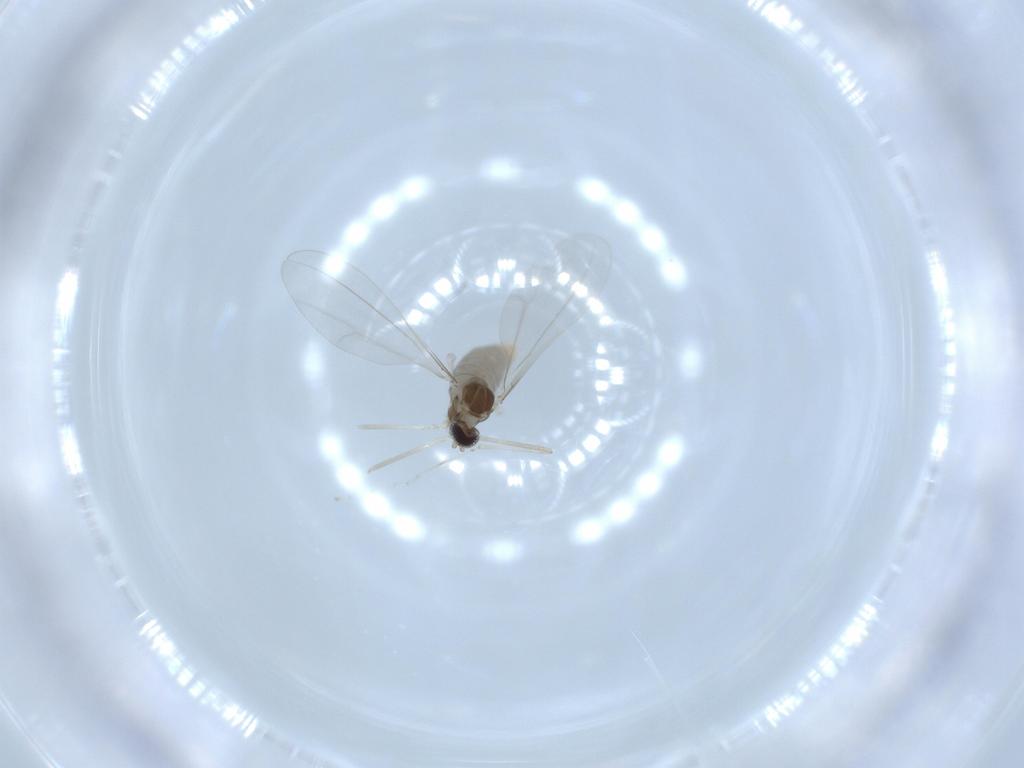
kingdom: Animalia
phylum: Arthropoda
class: Insecta
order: Diptera
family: Cecidomyiidae
